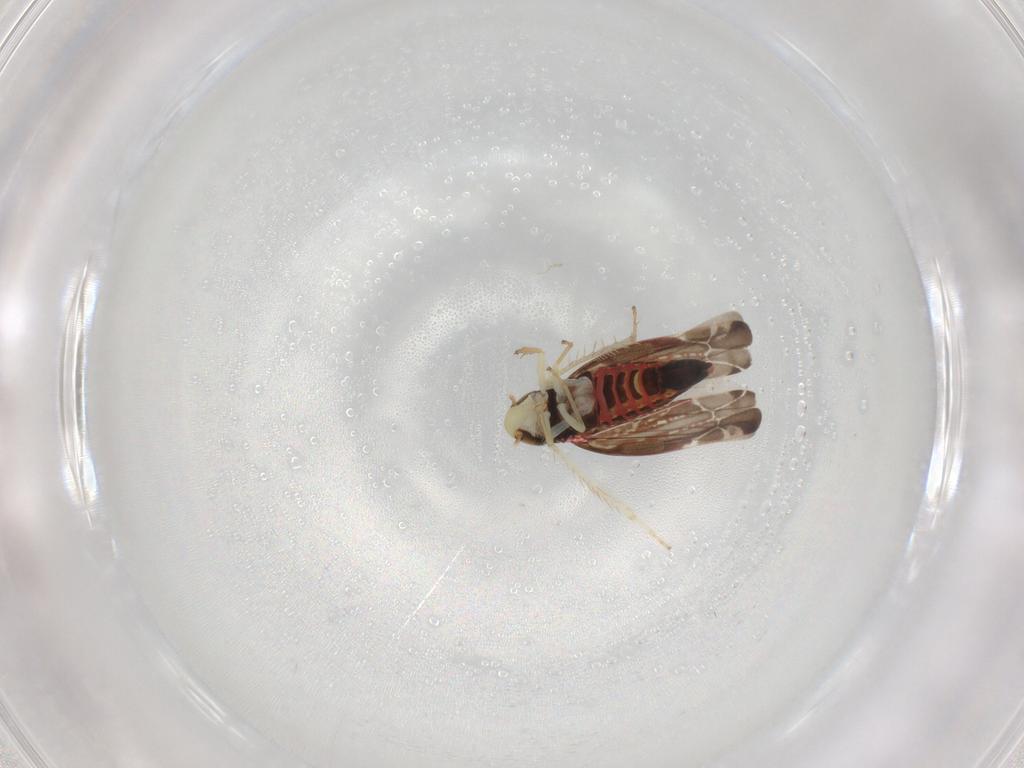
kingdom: Animalia
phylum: Arthropoda
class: Insecta
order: Hemiptera
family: Cicadellidae
